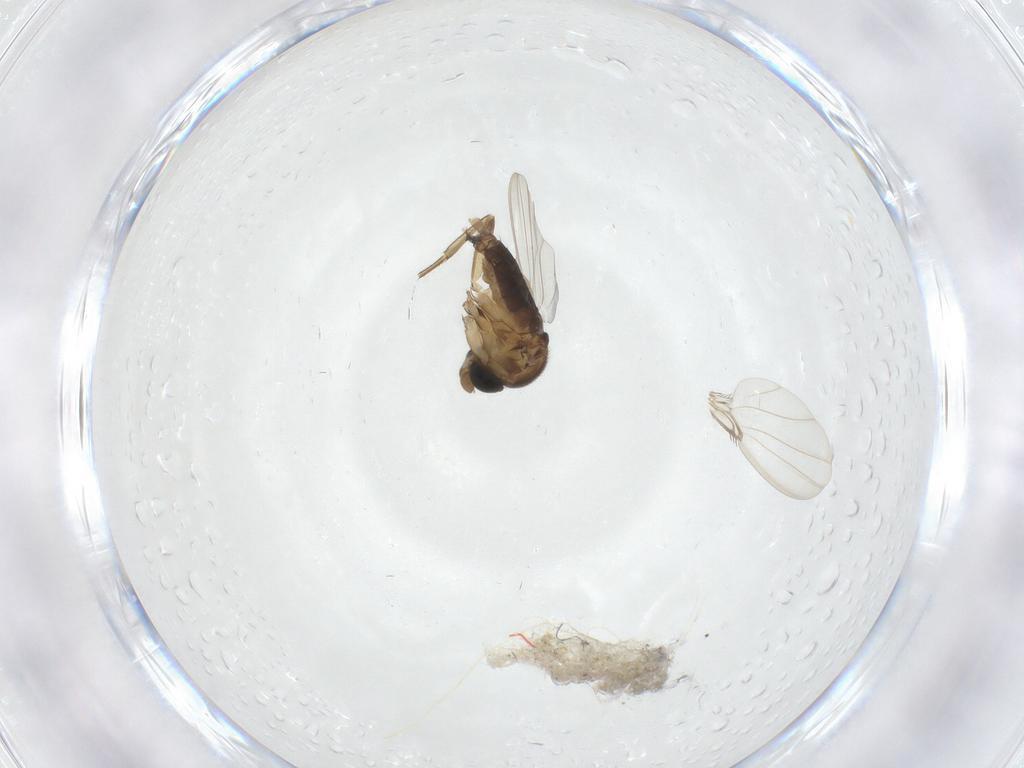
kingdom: Animalia
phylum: Arthropoda
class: Insecta
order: Diptera
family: Phoridae
